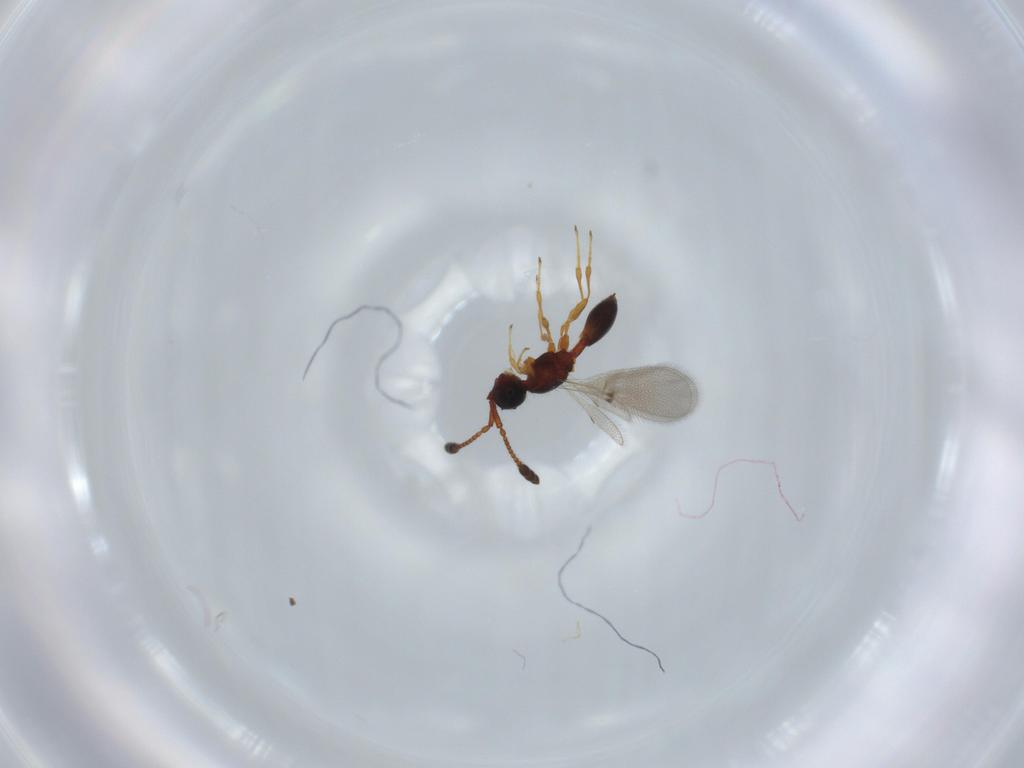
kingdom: Animalia
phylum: Arthropoda
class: Insecta
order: Hymenoptera
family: Diapriidae
